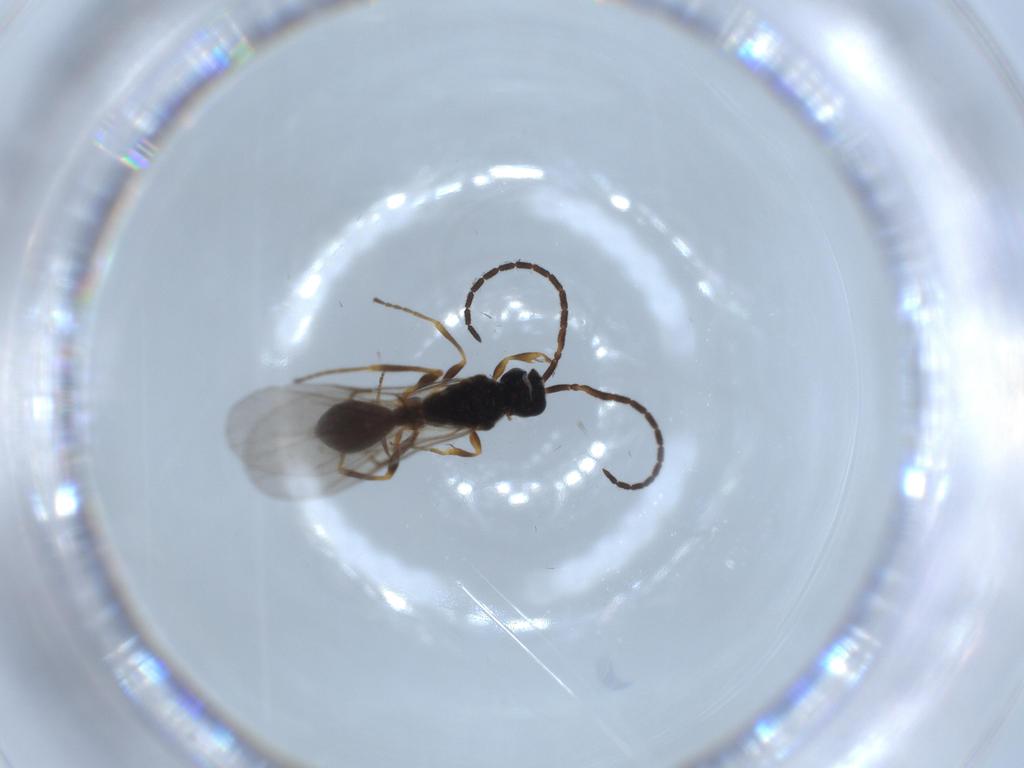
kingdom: Animalia
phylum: Arthropoda
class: Insecta
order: Hymenoptera
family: Diapriidae
